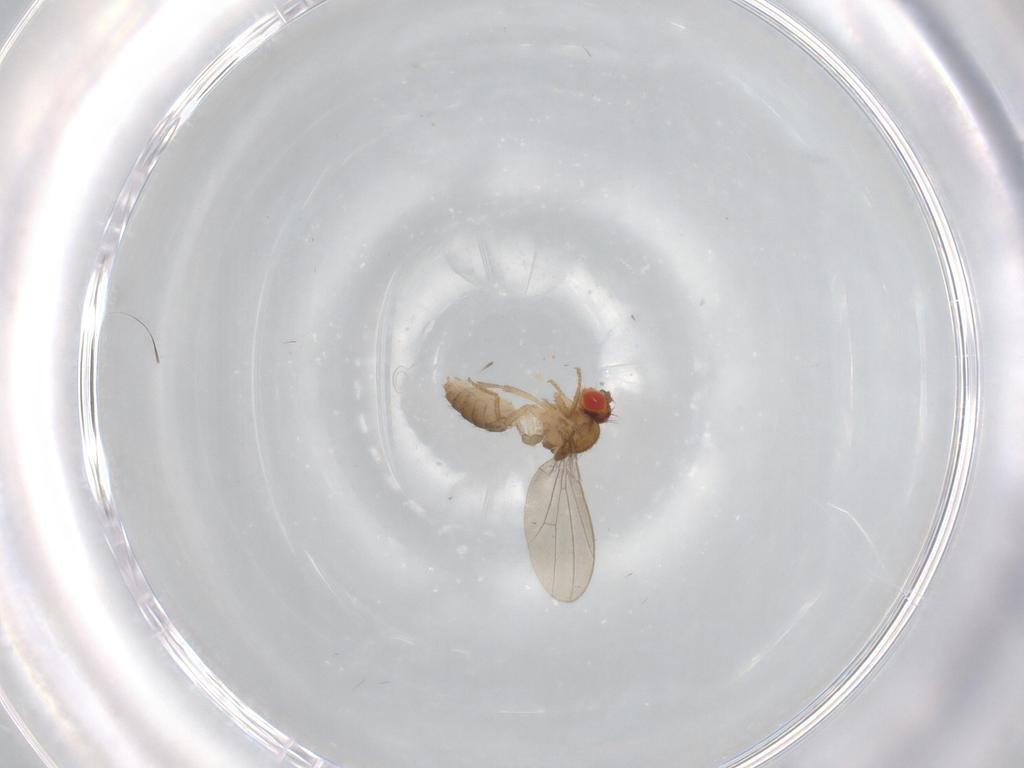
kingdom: Animalia
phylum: Arthropoda
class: Insecta
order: Diptera
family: Drosophilidae
